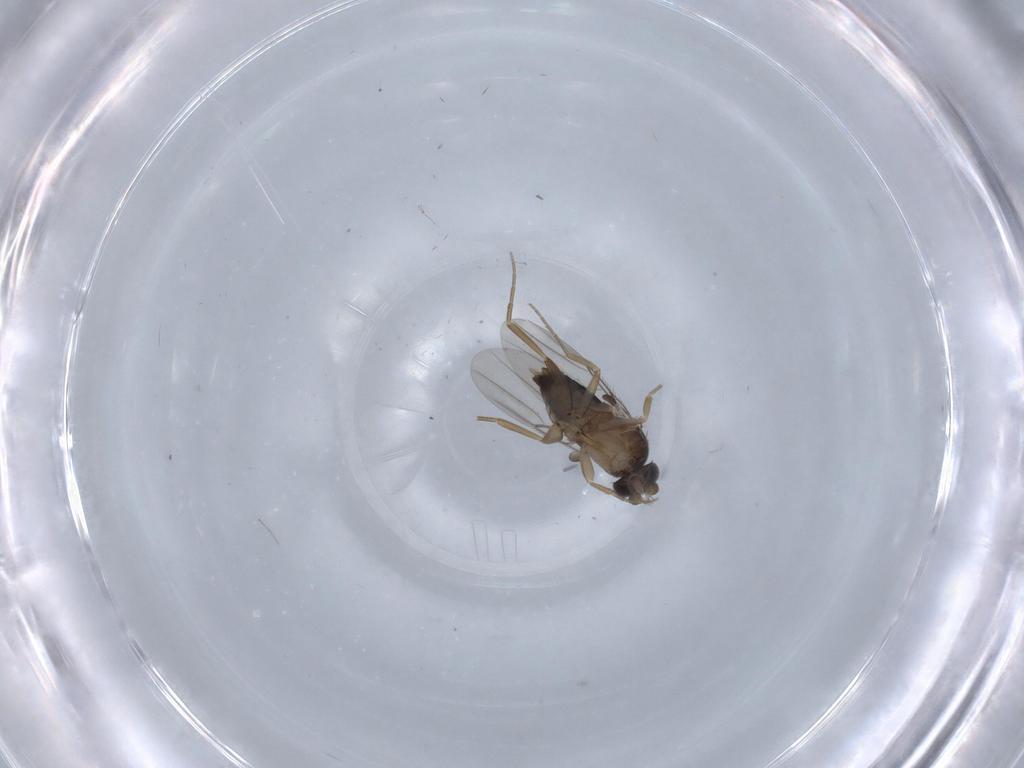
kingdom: Animalia
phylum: Arthropoda
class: Insecta
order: Diptera
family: Phoridae
